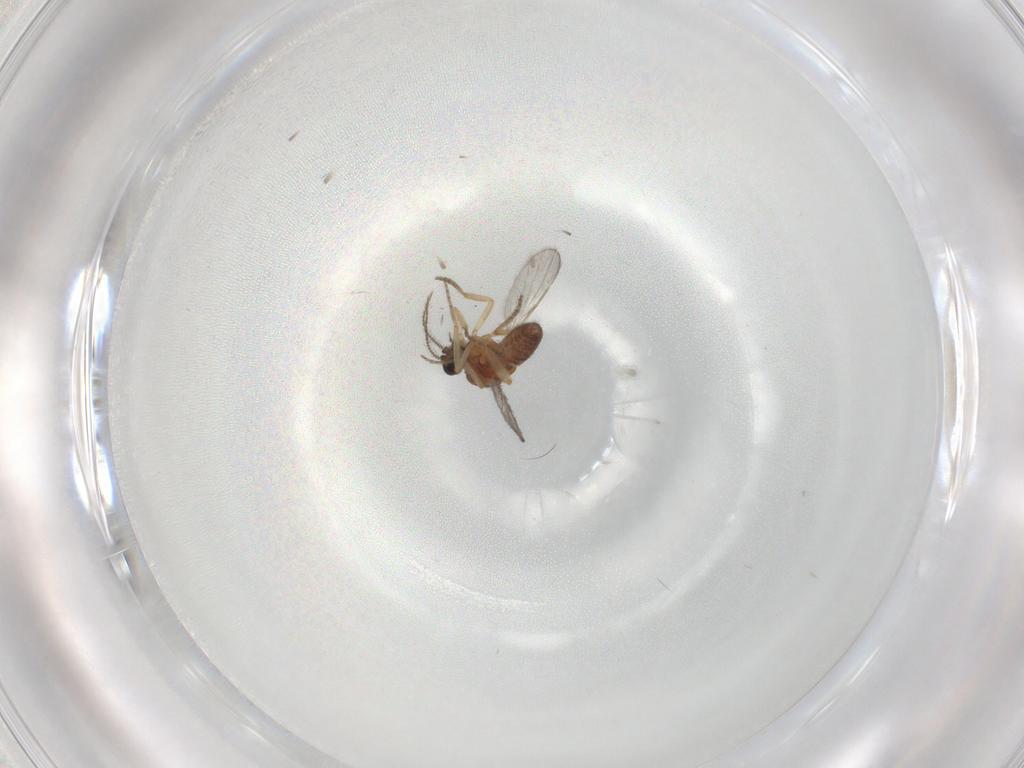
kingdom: Animalia
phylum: Arthropoda
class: Insecta
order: Diptera
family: Ceratopogonidae
